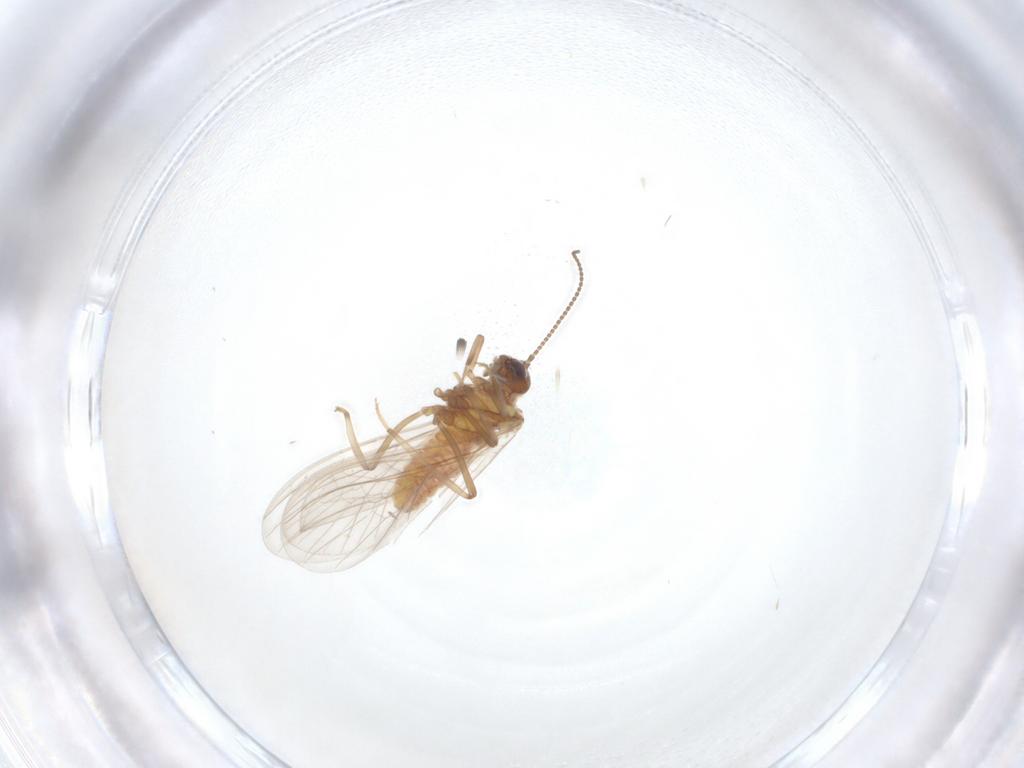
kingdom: Animalia
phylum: Arthropoda
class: Insecta
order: Neuroptera
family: Coniopterygidae
